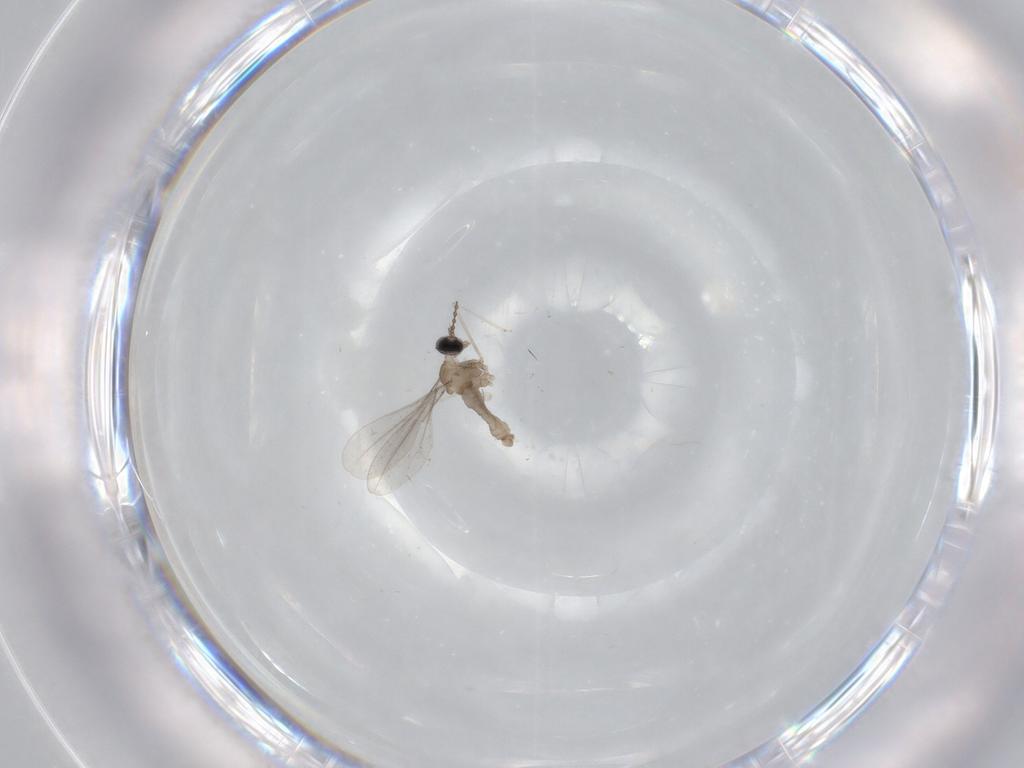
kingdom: Animalia
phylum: Arthropoda
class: Insecta
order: Diptera
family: Cecidomyiidae
